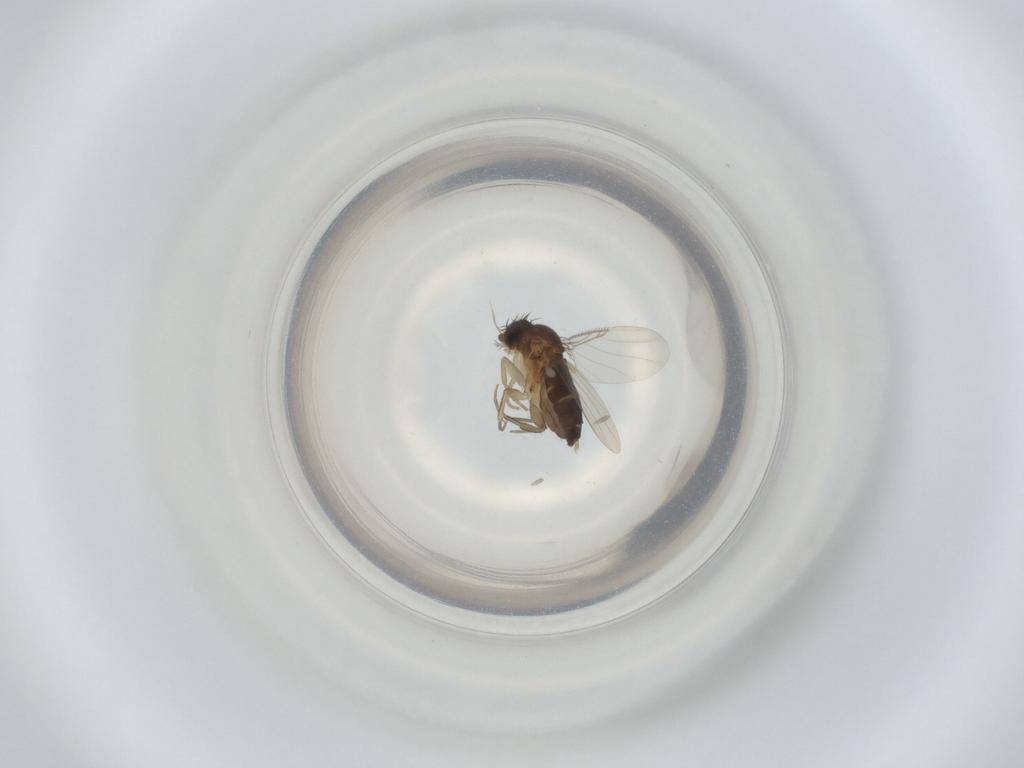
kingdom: Animalia
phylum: Arthropoda
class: Insecta
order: Diptera
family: Phoridae
